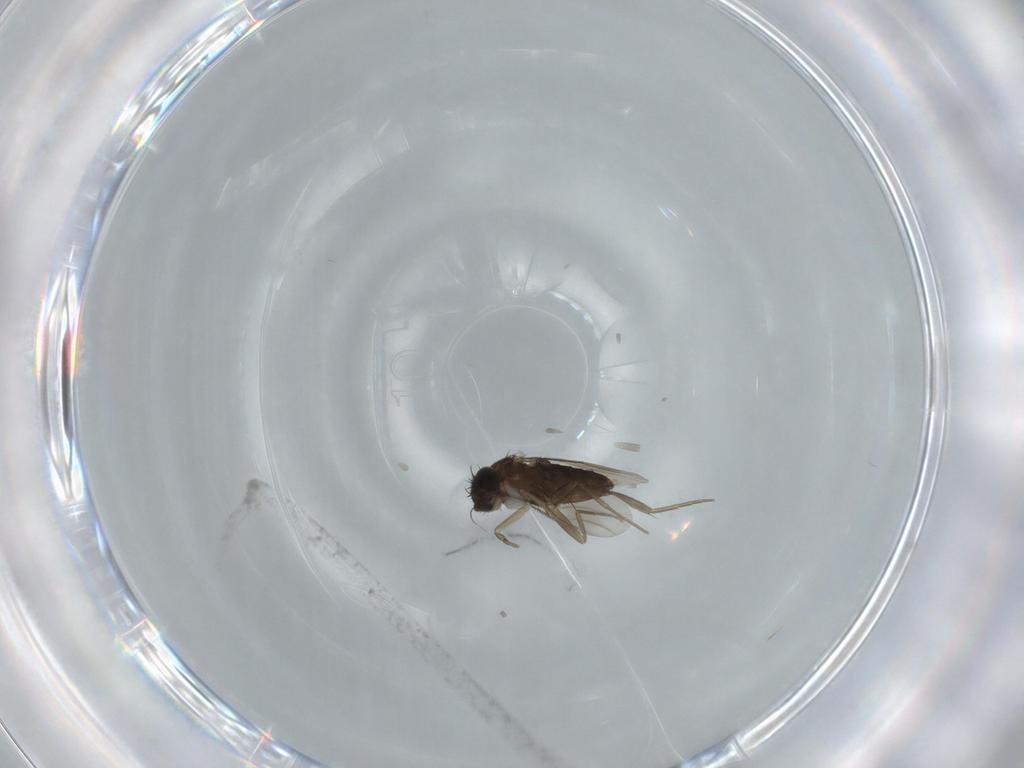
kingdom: Animalia
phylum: Arthropoda
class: Insecta
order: Diptera
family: Phoridae
